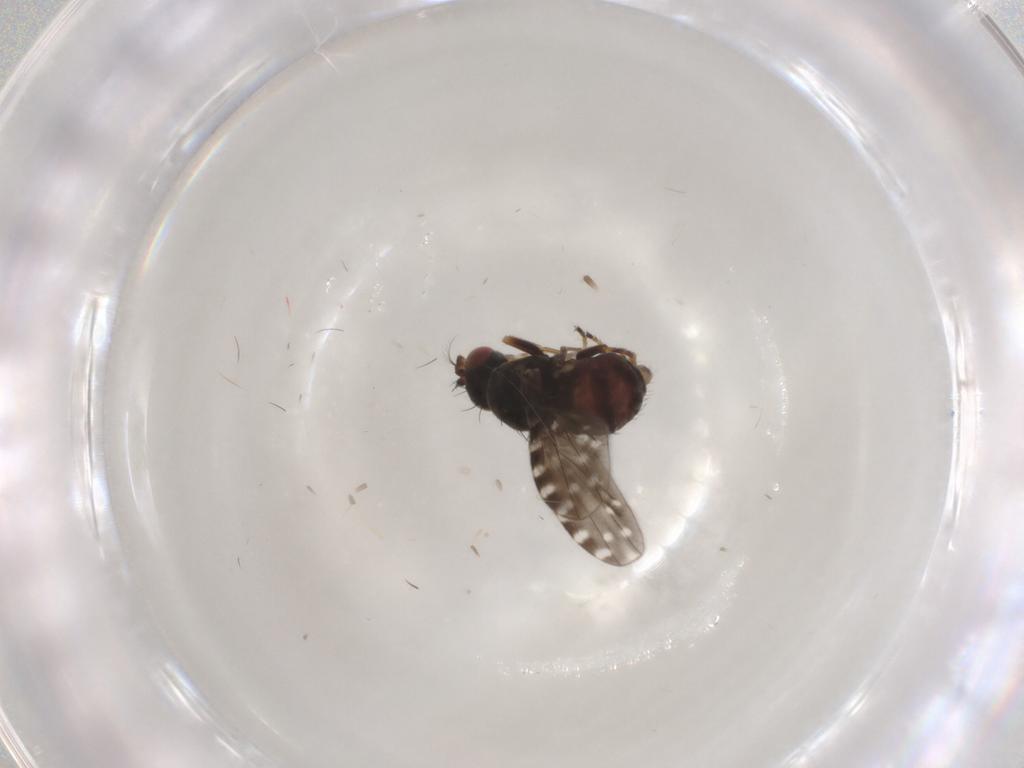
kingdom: Animalia
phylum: Arthropoda
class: Insecta
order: Diptera
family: Ephydridae
